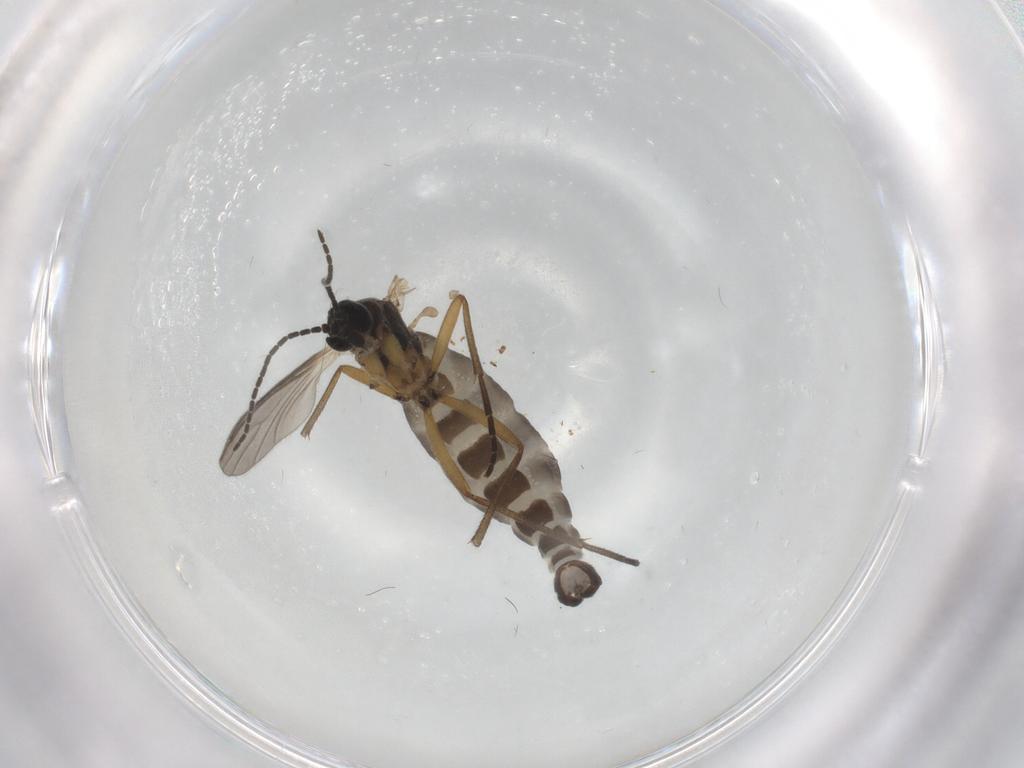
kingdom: Animalia
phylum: Arthropoda
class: Insecta
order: Diptera
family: Sciaridae
